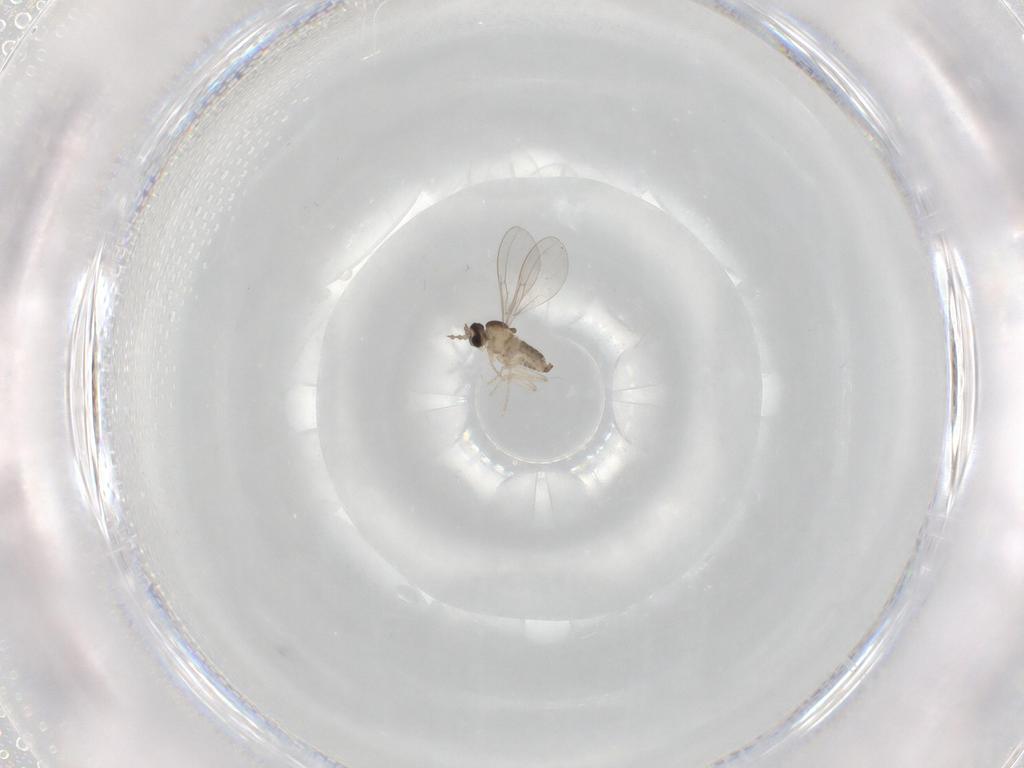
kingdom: Animalia
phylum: Arthropoda
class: Insecta
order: Diptera
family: Cecidomyiidae
